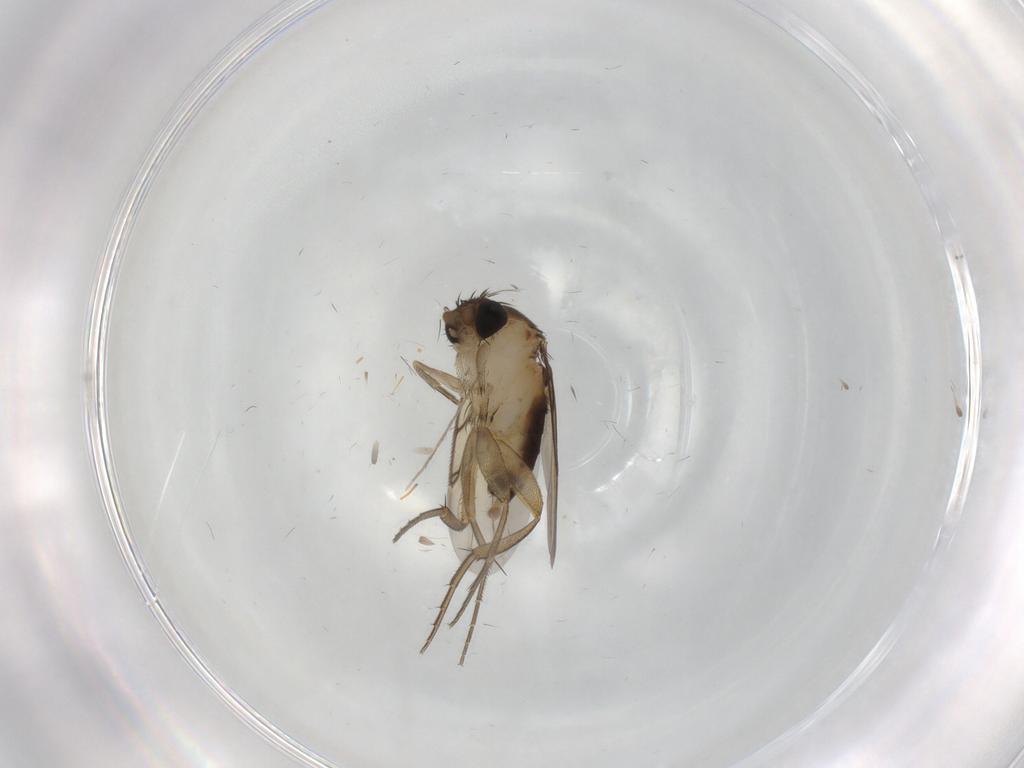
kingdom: Animalia
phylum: Arthropoda
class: Insecta
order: Diptera
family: Chironomidae
